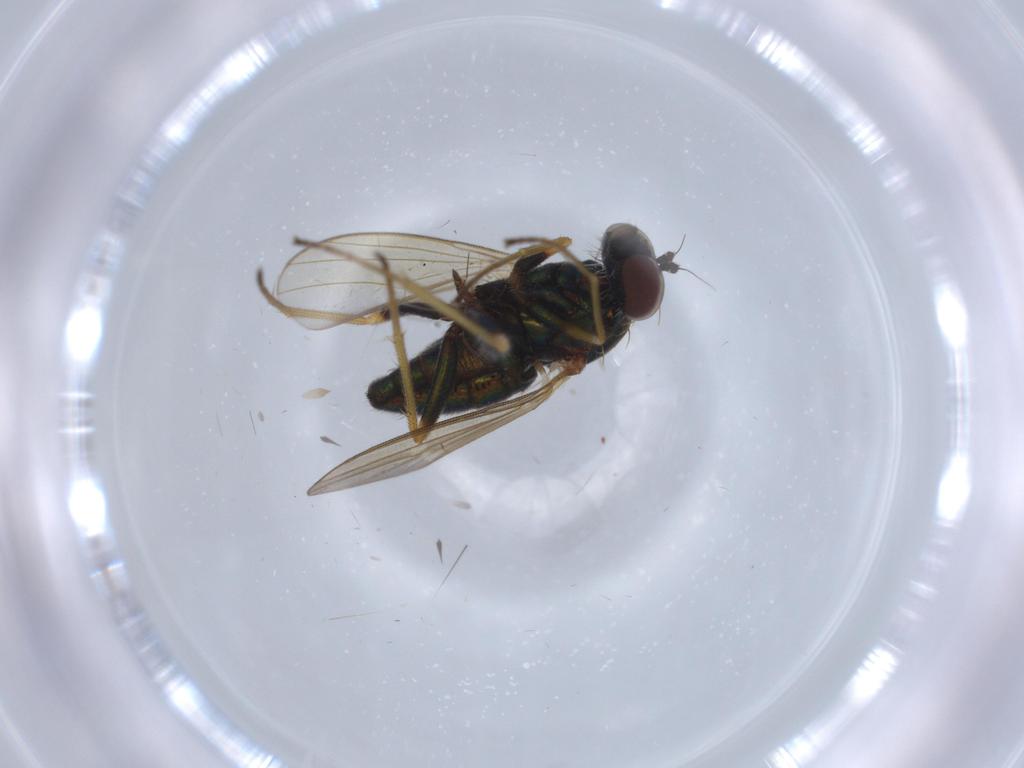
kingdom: Animalia
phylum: Arthropoda
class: Insecta
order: Diptera
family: Dolichopodidae
